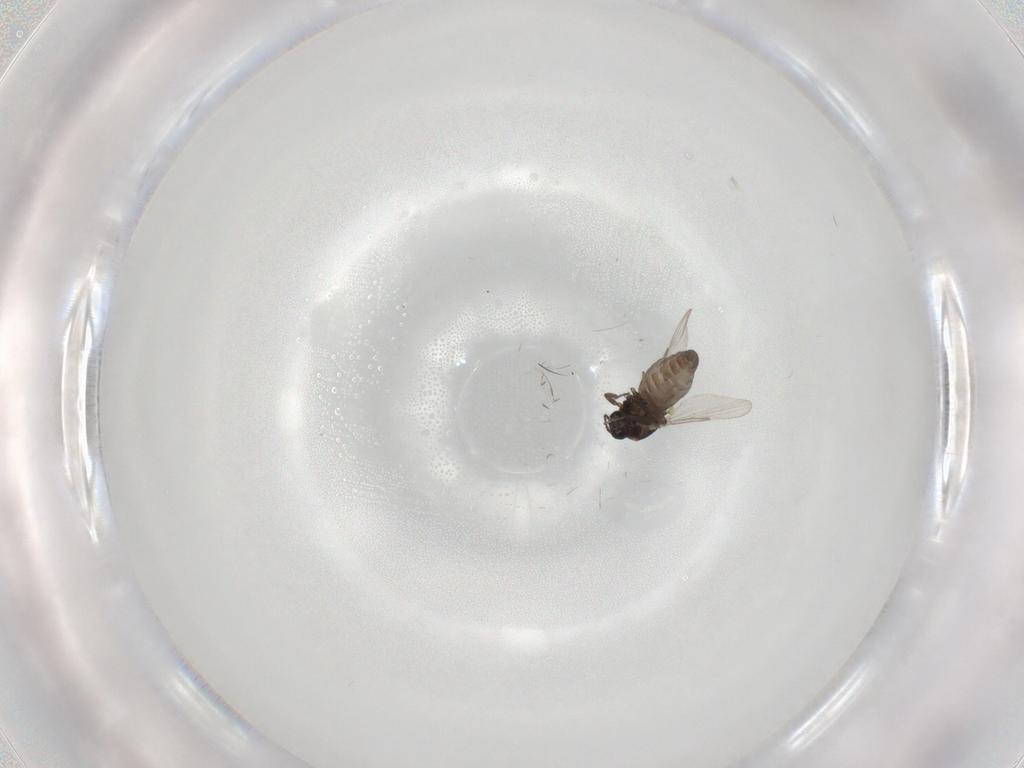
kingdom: Animalia
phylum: Arthropoda
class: Insecta
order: Diptera
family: Ceratopogonidae
